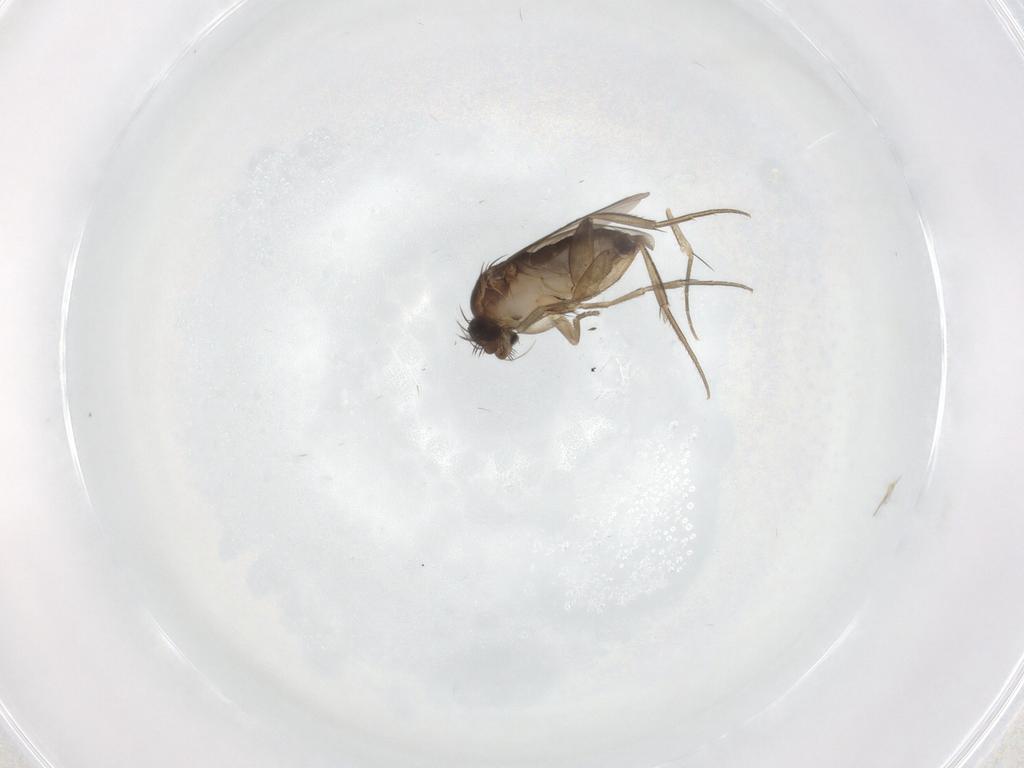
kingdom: Animalia
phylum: Arthropoda
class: Insecta
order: Diptera
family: Phoridae
